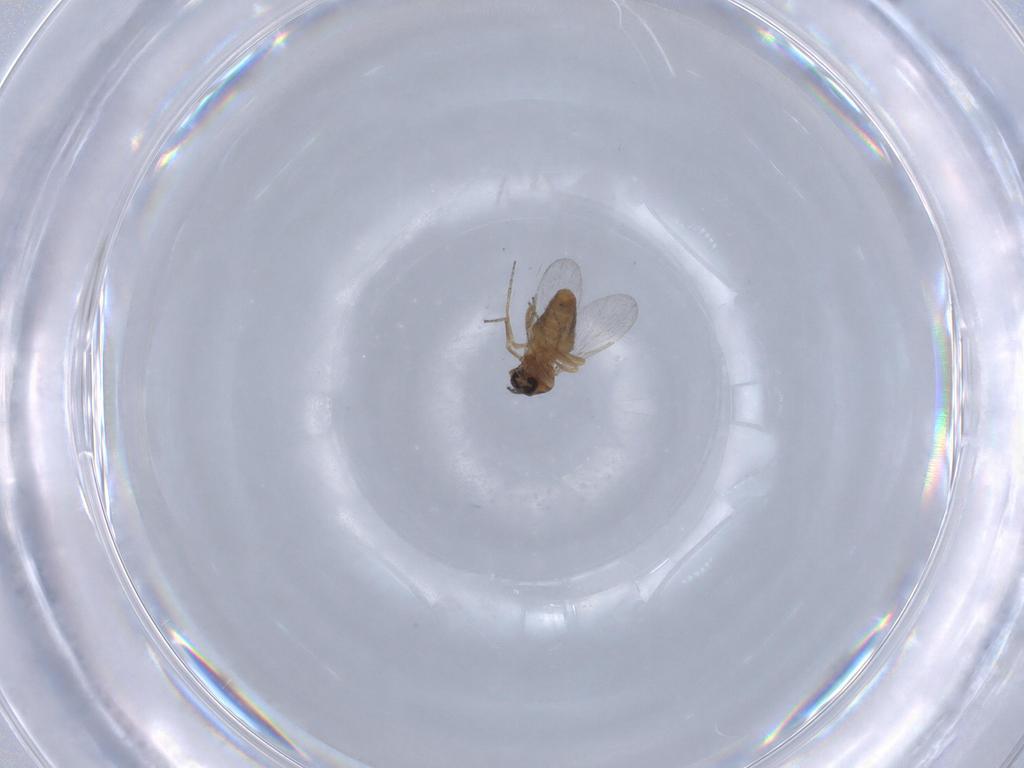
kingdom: Animalia
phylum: Arthropoda
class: Insecta
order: Diptera
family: Ceratopogonidae
